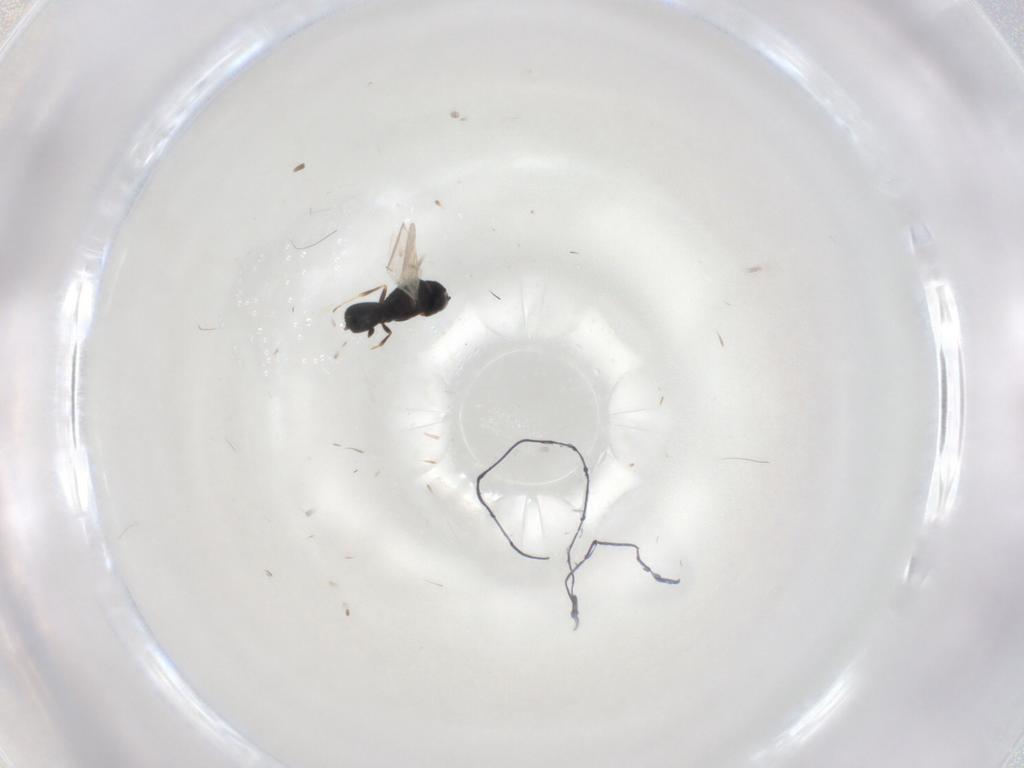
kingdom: Animalia
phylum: Arthropoda
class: Insecta
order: Hymenoptera
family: Scelionidae
